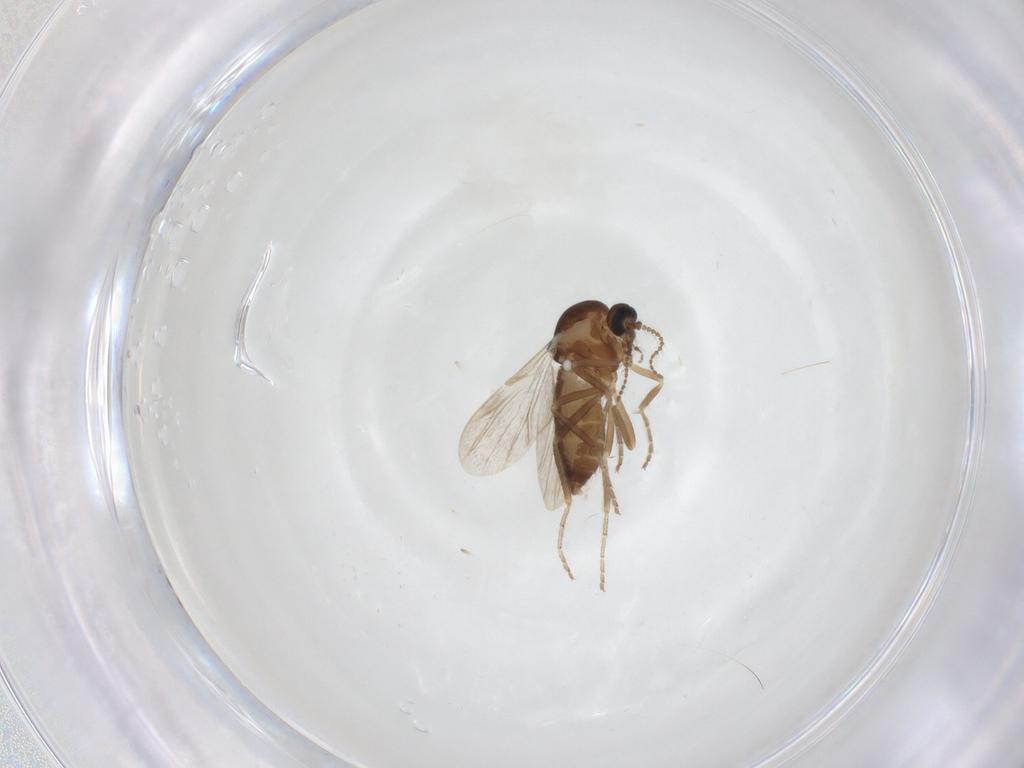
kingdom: Animalia
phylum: Arthropoda
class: Insecta
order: Diptera
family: Ceratopogonidae
